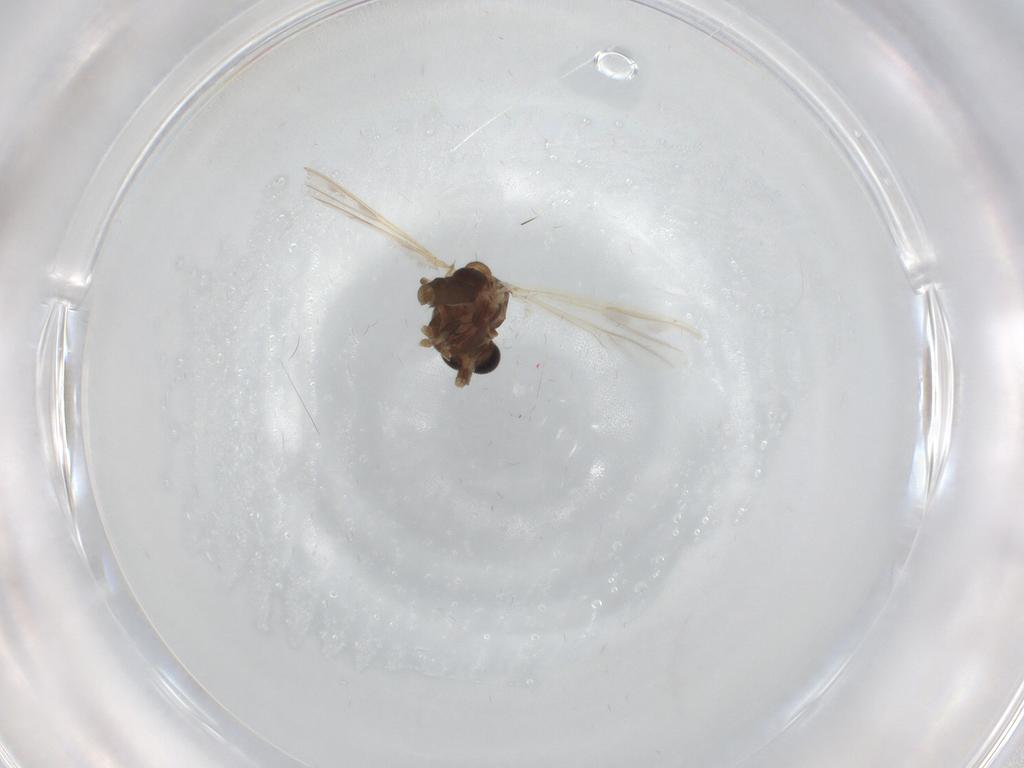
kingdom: Animalia
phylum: Arthropoda
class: Insecta
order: Diptera
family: Chironomidae
